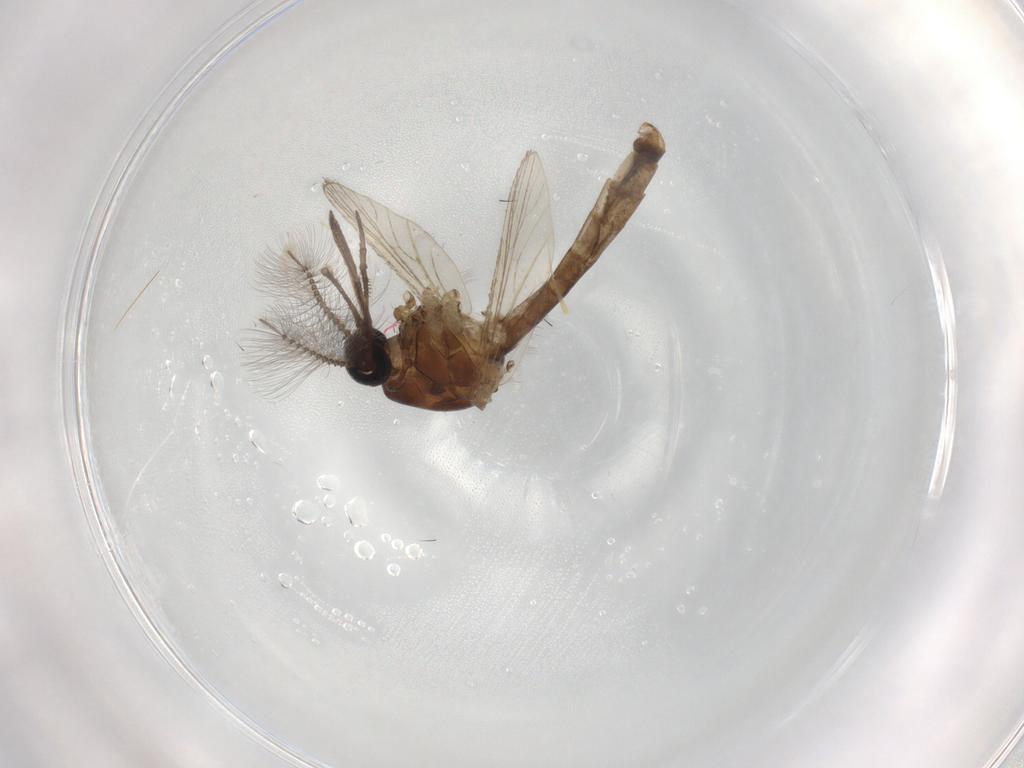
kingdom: Animalia
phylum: Arthropoda
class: Insecta
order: Diptera
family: Culicidae
